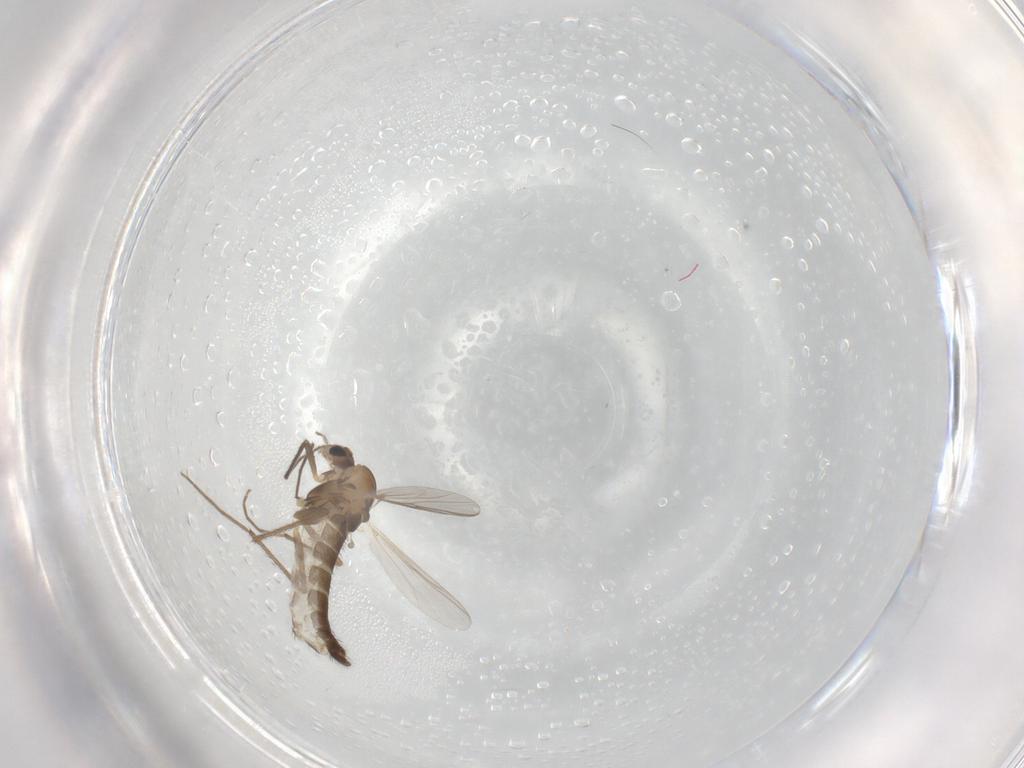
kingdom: Animalia
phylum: Arthropoda
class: Insecta
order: Diptera
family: Chironomidae
